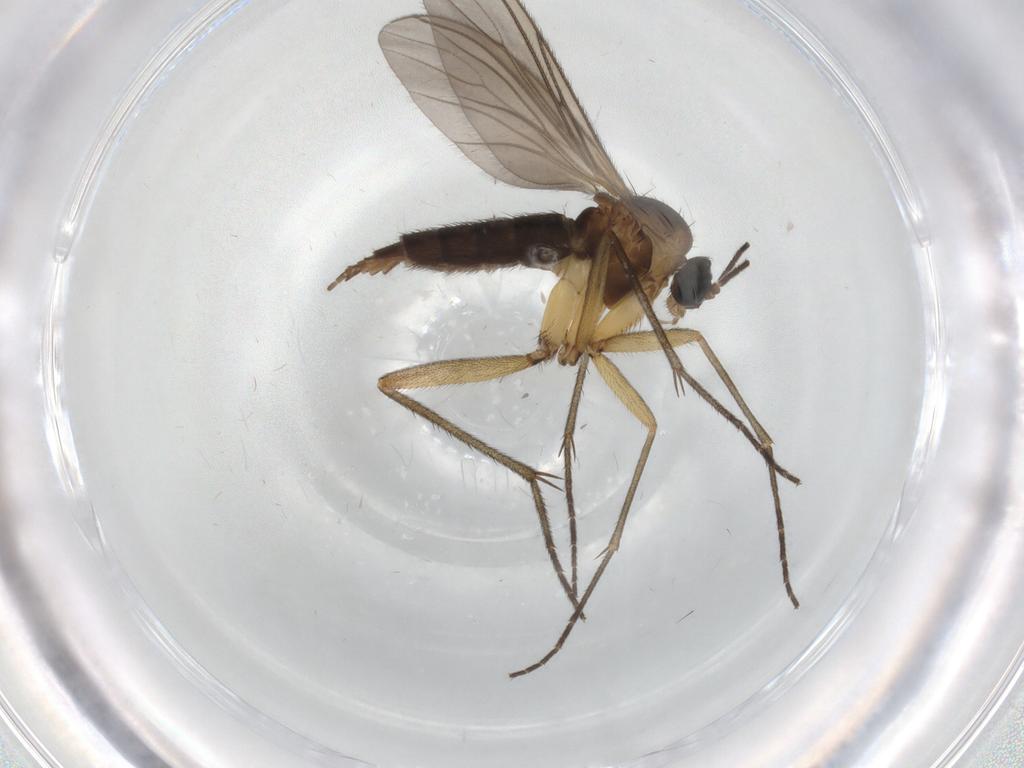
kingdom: Animalia
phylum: Arthropoda
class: Insecta
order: Diptera
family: Sciaridae
